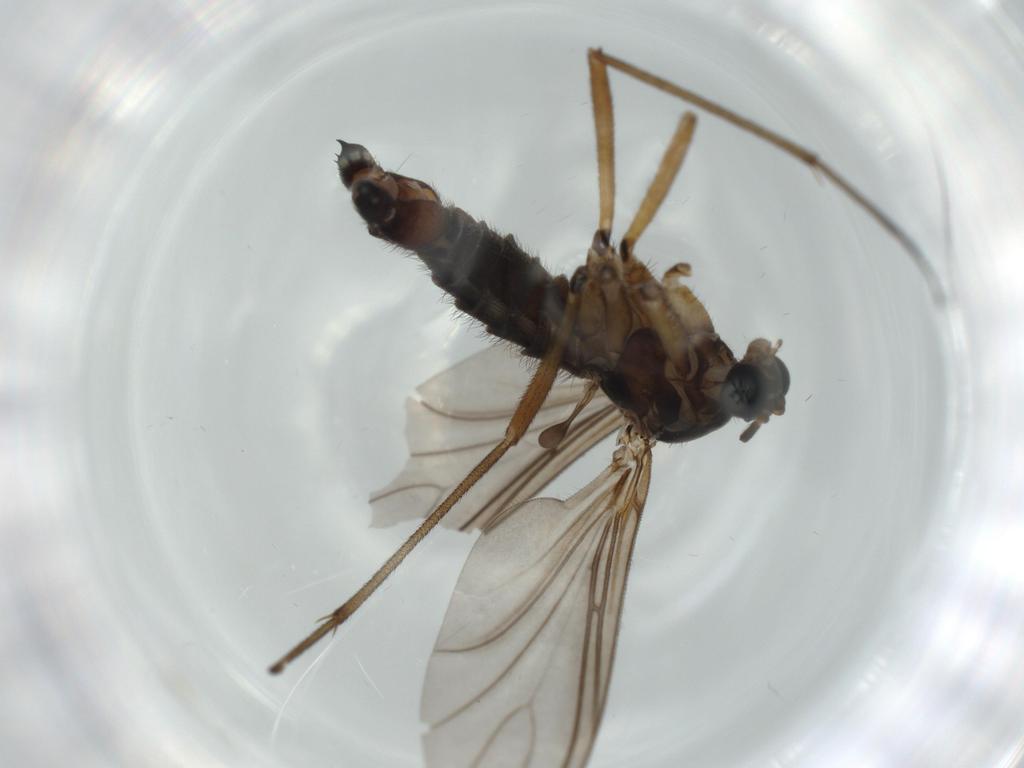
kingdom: Animalia
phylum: Arthropoda
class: Insecta
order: Diptera
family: Sciaridae
